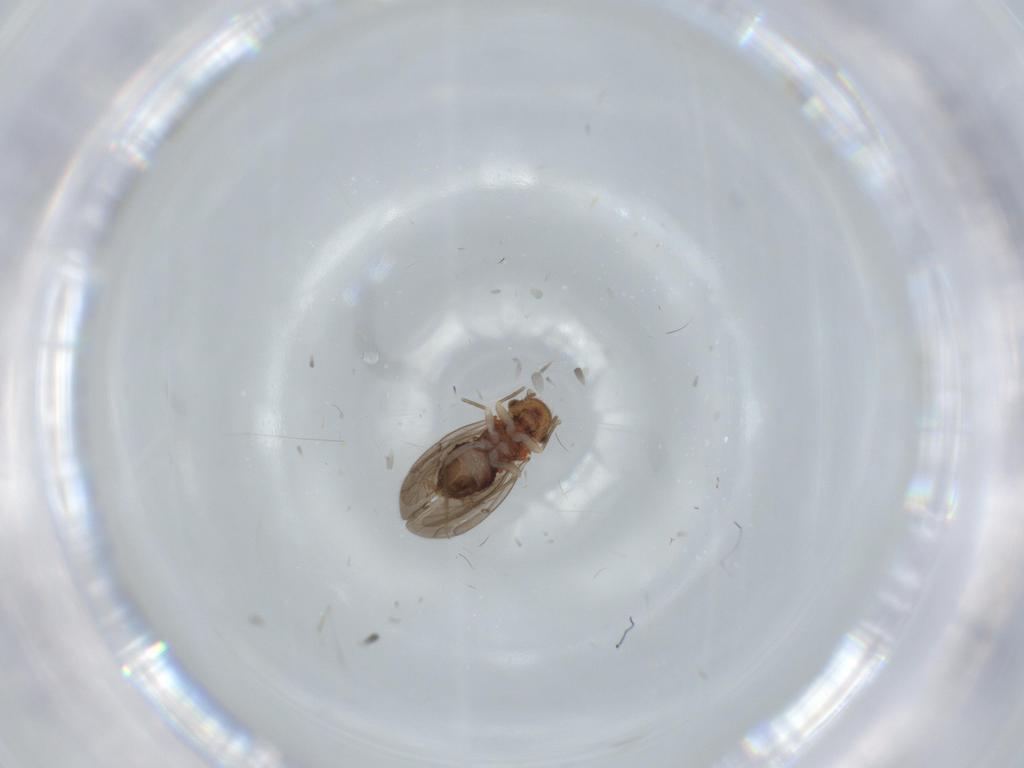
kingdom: Animalia
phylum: Arthropoda
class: Insecta
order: Psocodea
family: Ectopsocidae
